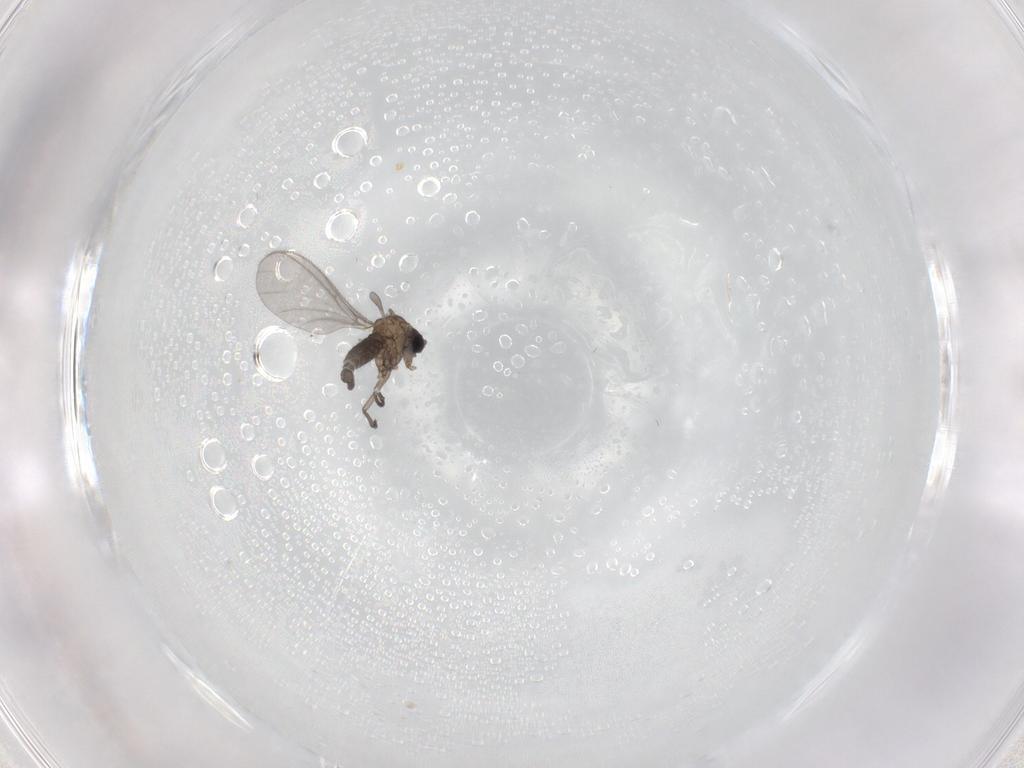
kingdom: Animalia
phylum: Arthropoda
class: Insecta
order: Diptera
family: Sciaridae
